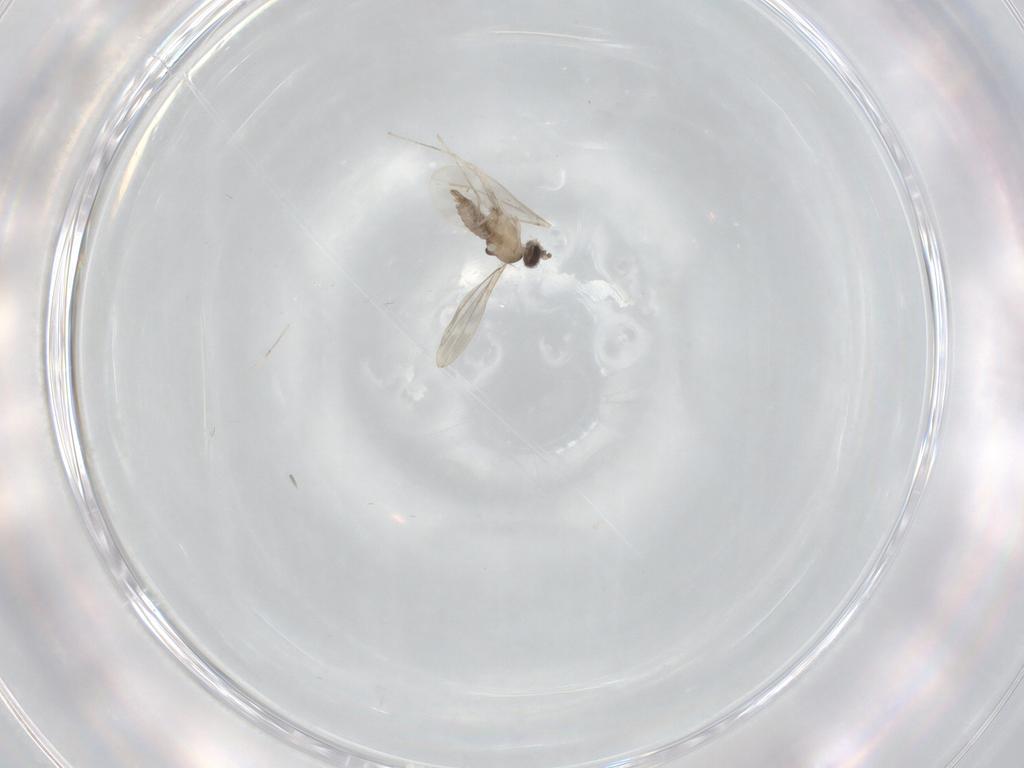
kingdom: Animalia
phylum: Arthropoda
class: Insecta
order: Diptera
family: Cecidomyiidae
